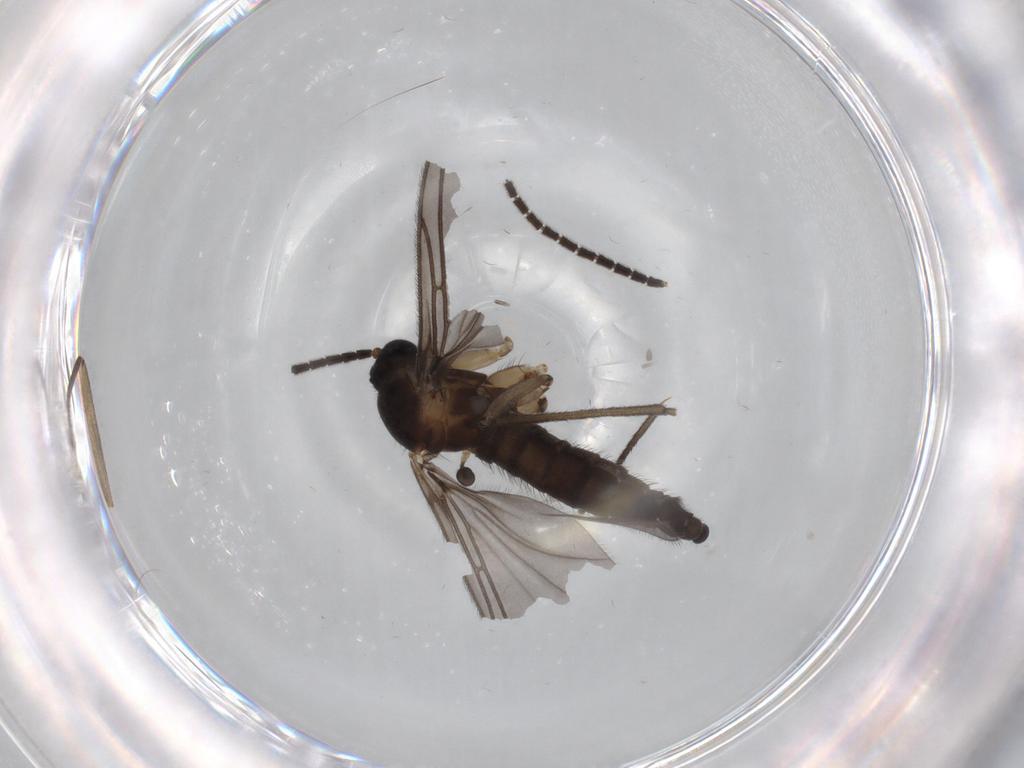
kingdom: Animalia
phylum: Arthropoda
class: Insecta
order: Diptera
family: Sciaridae
